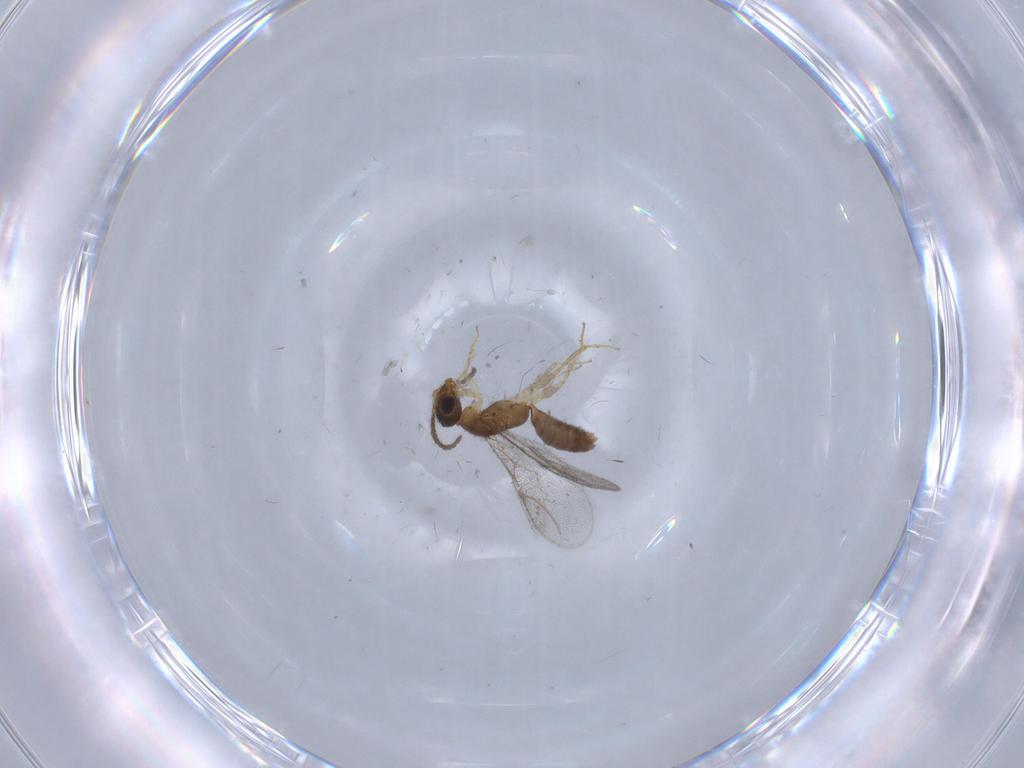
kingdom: Animalia
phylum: Arthropoda
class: Insecta
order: Hymenoptera
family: Bethylidae
